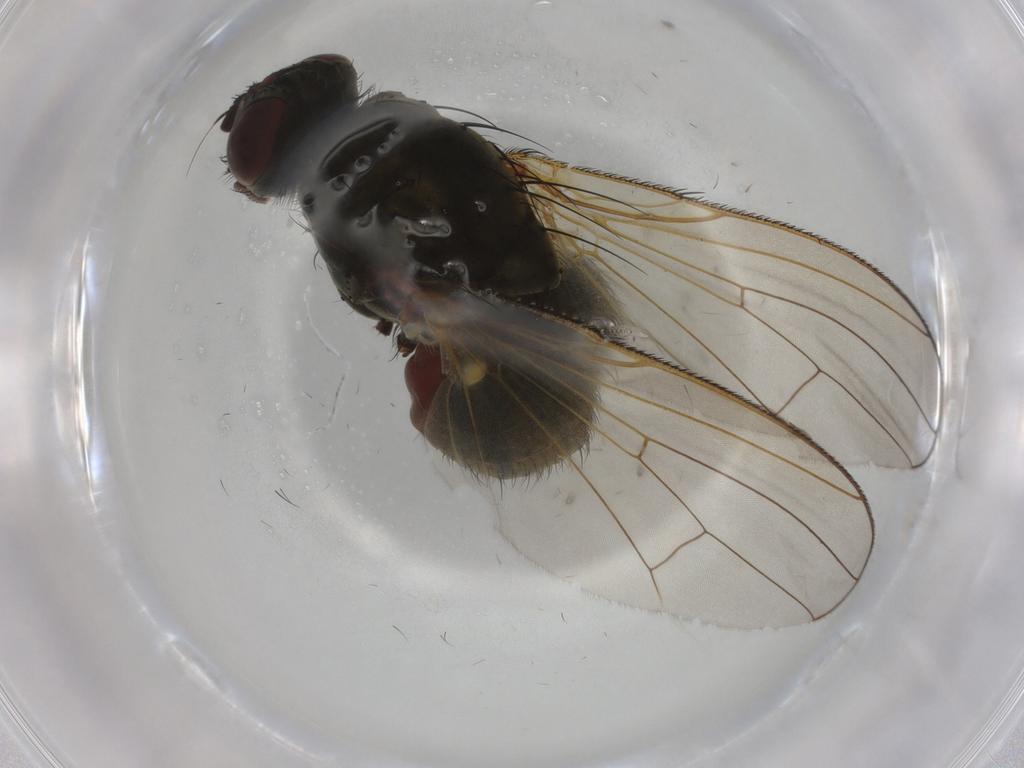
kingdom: Animalia
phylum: Arthropoda
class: Insecta
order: Diptera
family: Anthomyiidae
